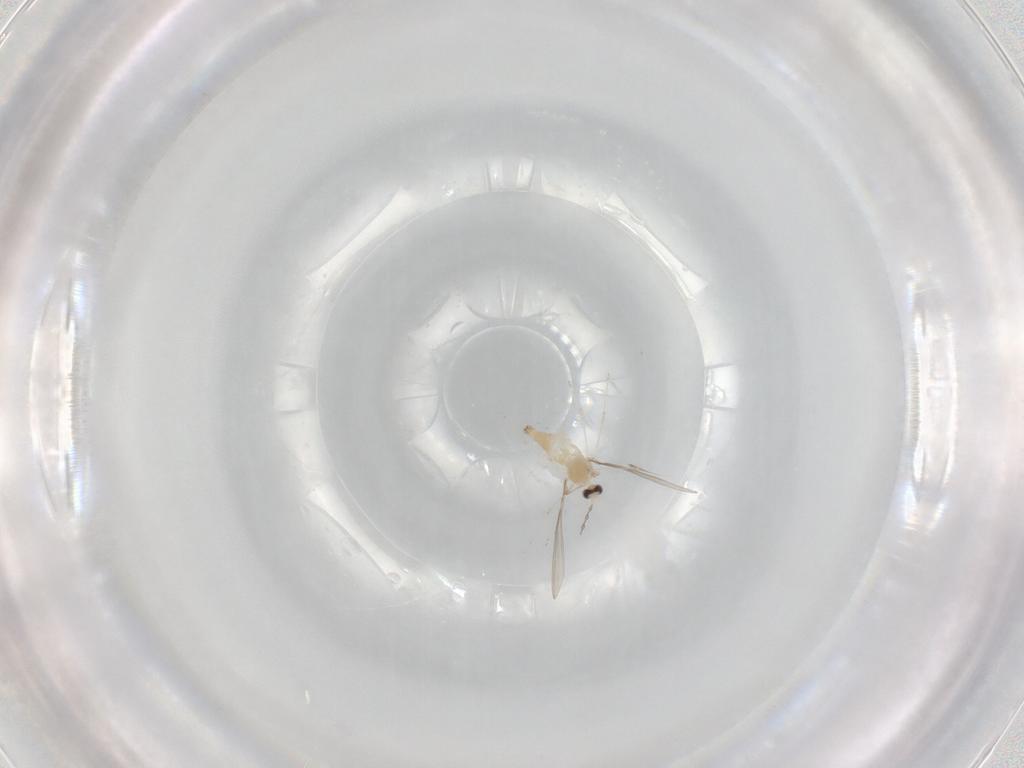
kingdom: Animalia
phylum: Arthropoda
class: Insecta
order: Diptera
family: Cecidomyiidae
